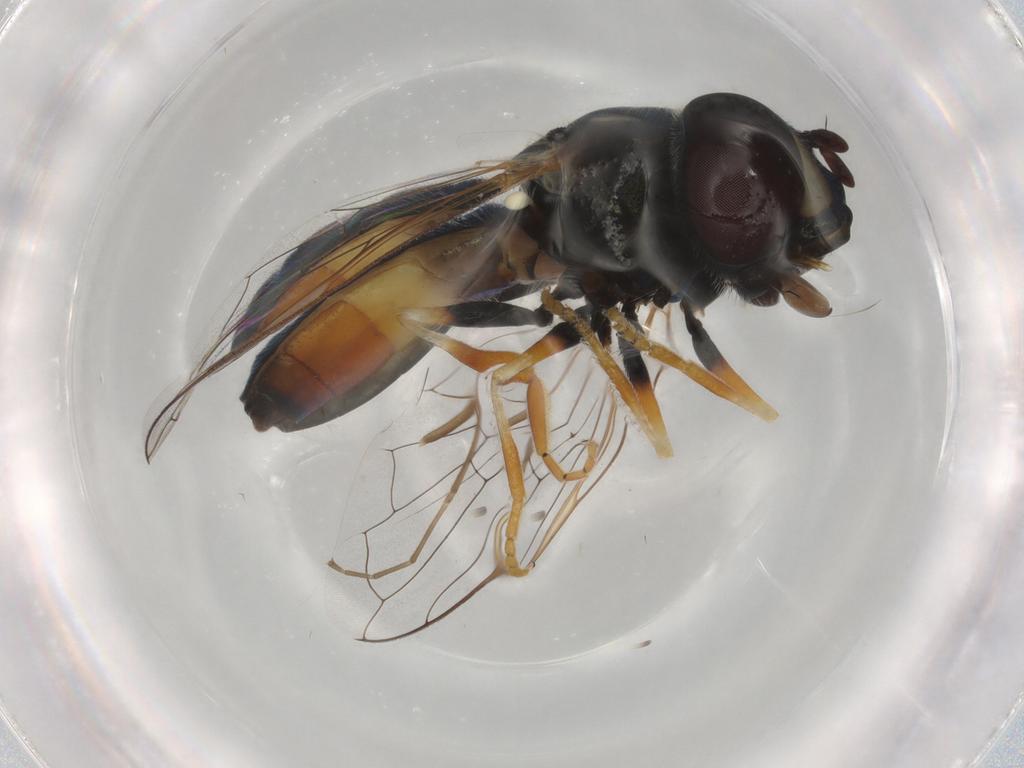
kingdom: Animalia
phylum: Arthropoda
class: Insecta
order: Diptera
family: Syrphidae
